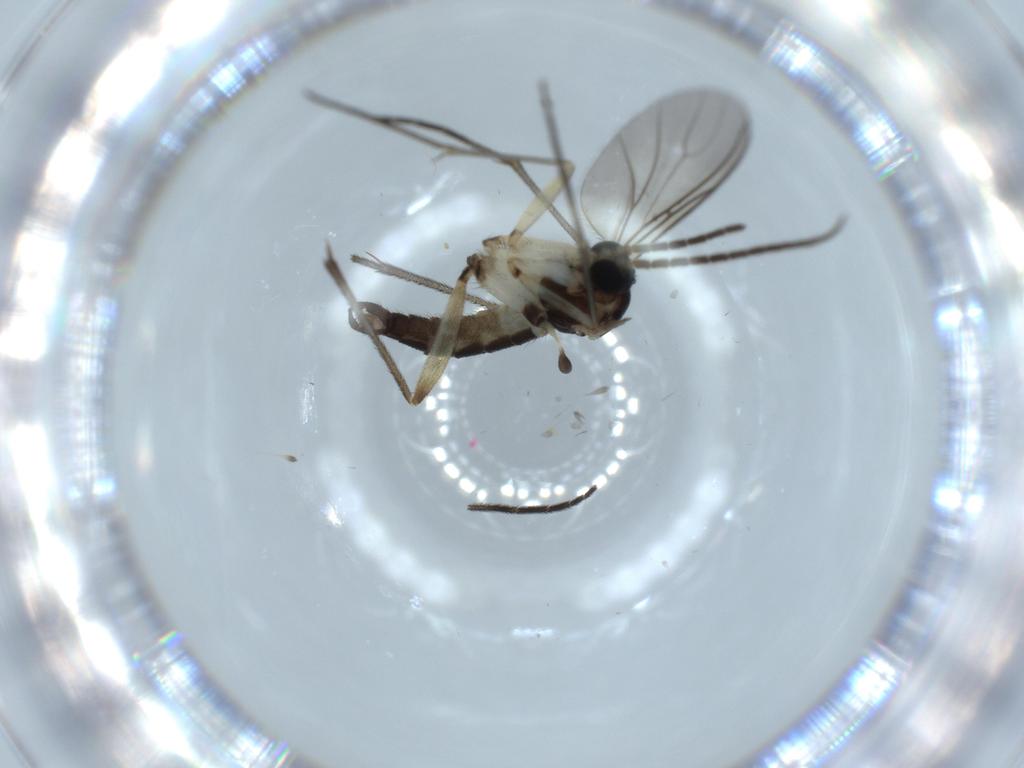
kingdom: Animalia
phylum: Arthropoda
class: Insecta
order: Diptera
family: Sciaridae
